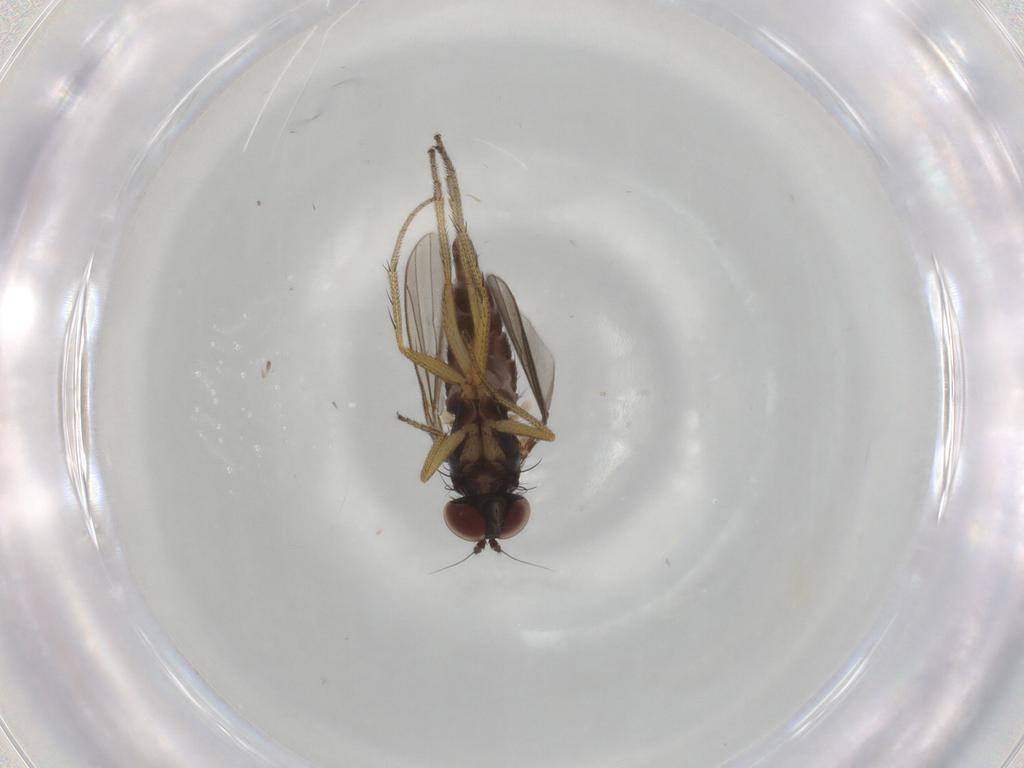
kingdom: Animalia
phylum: Arthropoda
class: Insecta
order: Diptera
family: Dolichopodidae
